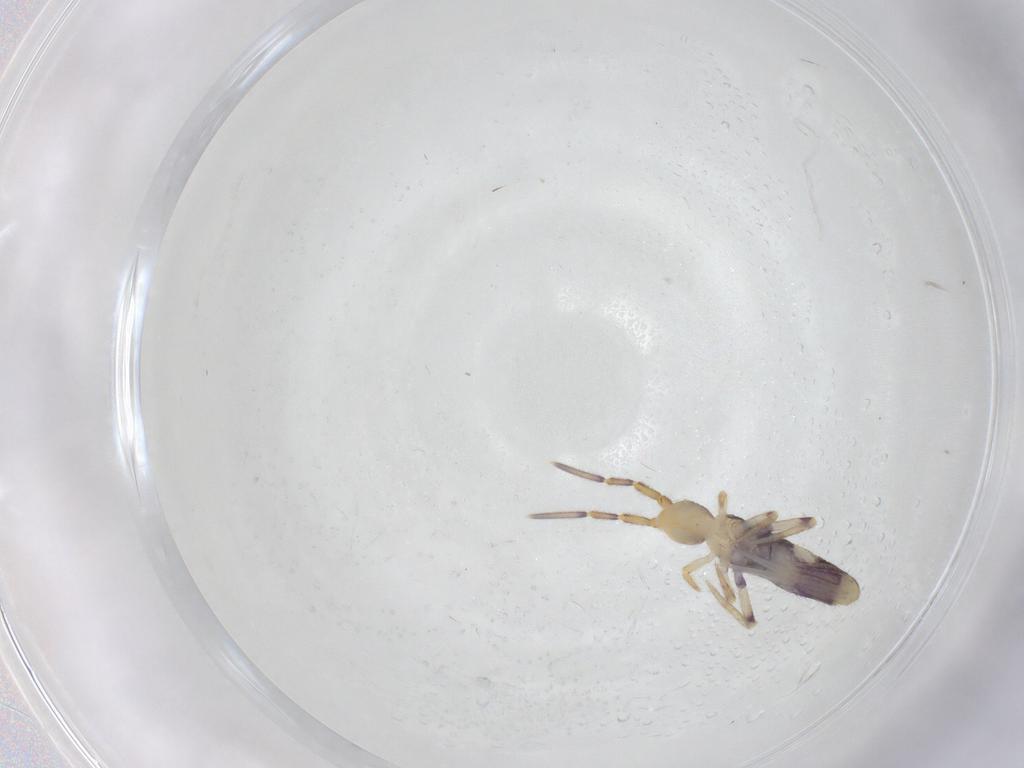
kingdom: Animalia
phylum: Arthropoda
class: Collembola
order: Entomobryomorpha
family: Entomobryidae
